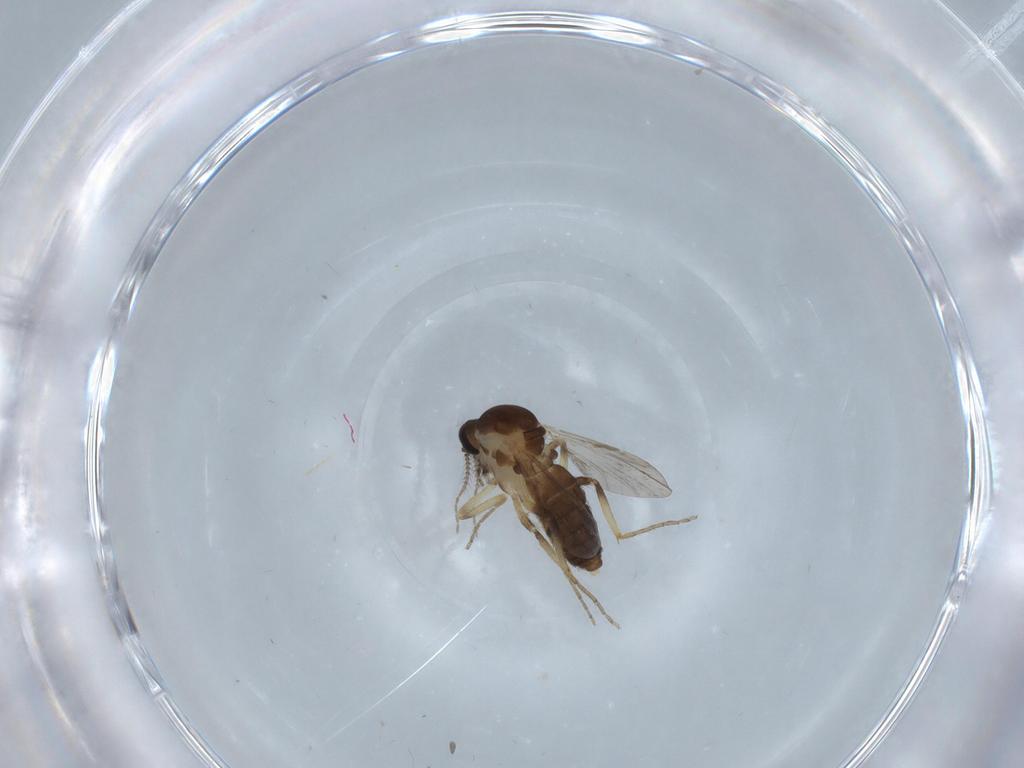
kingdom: Animalia
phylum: Arthropoda
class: Insecta
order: Diptera
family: Ceratopogonidae
